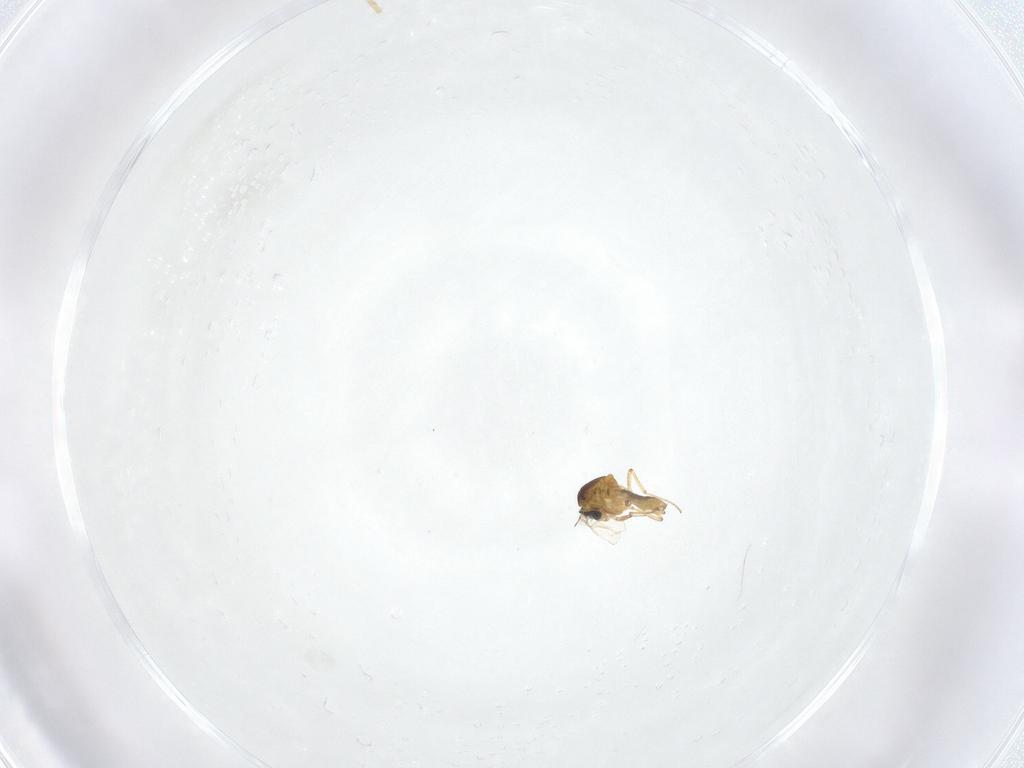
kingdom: Animalia
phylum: Arthropoda
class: Insecta
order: Diptera
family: Ceratopogonidae
